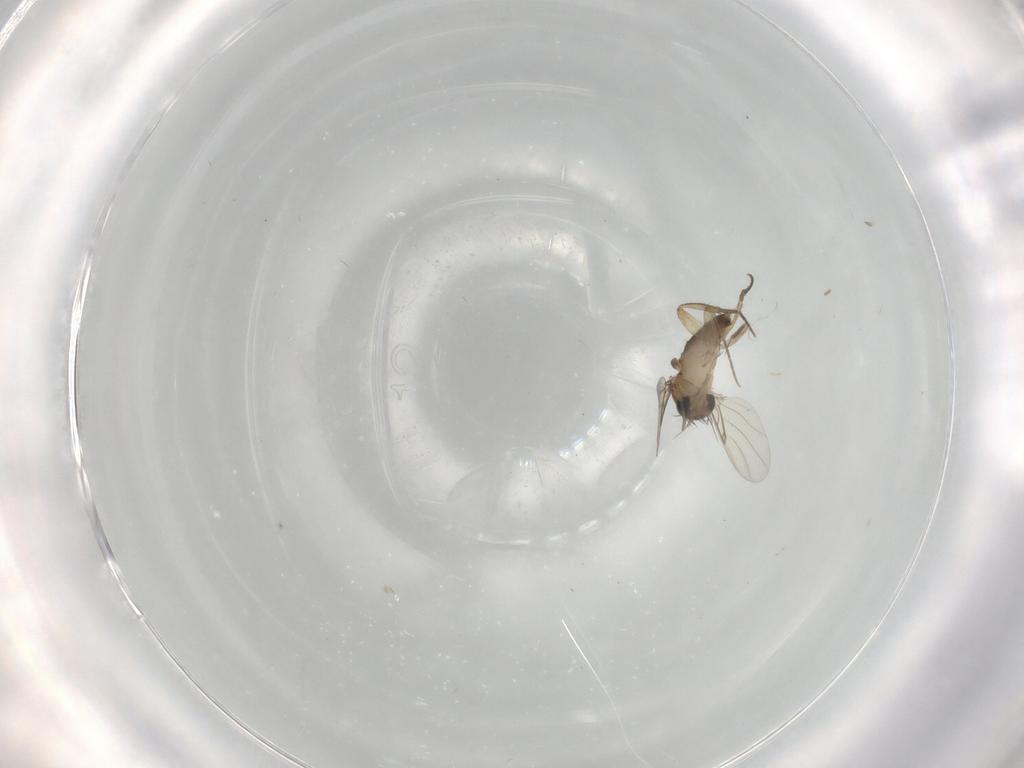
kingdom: Animalia
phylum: Arthropoda
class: Insecta
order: Diptera
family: Phoridae
